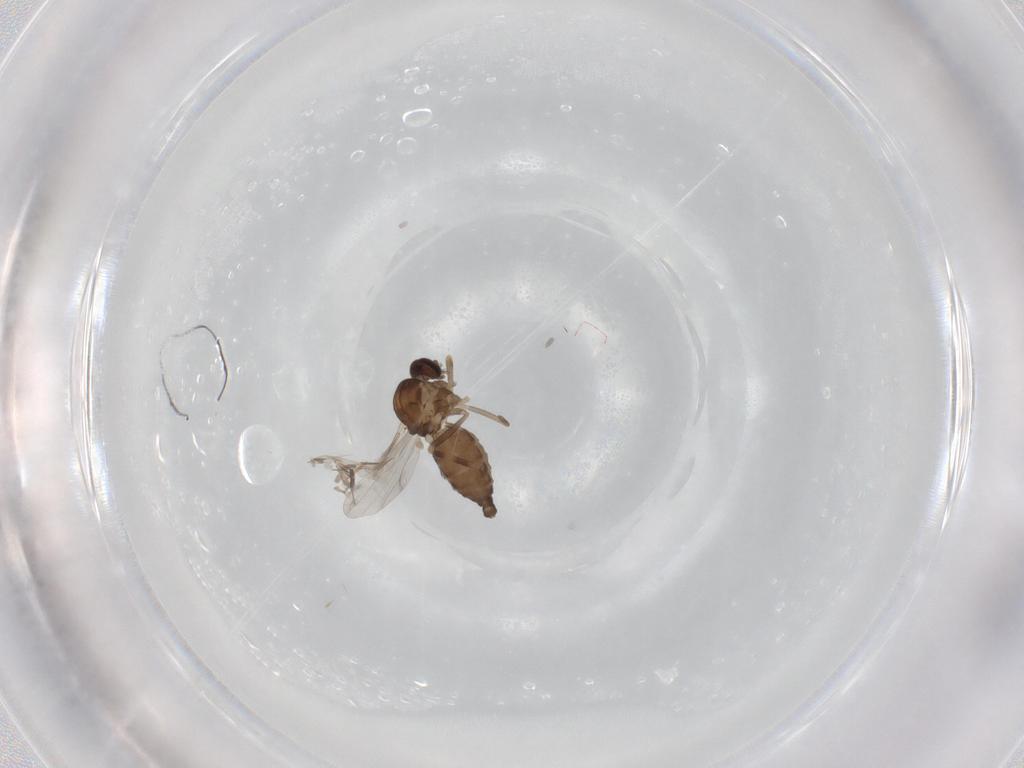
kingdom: Animalia
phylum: Arthropoda
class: Insecta
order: Diptera
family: Ceratopogonidae
